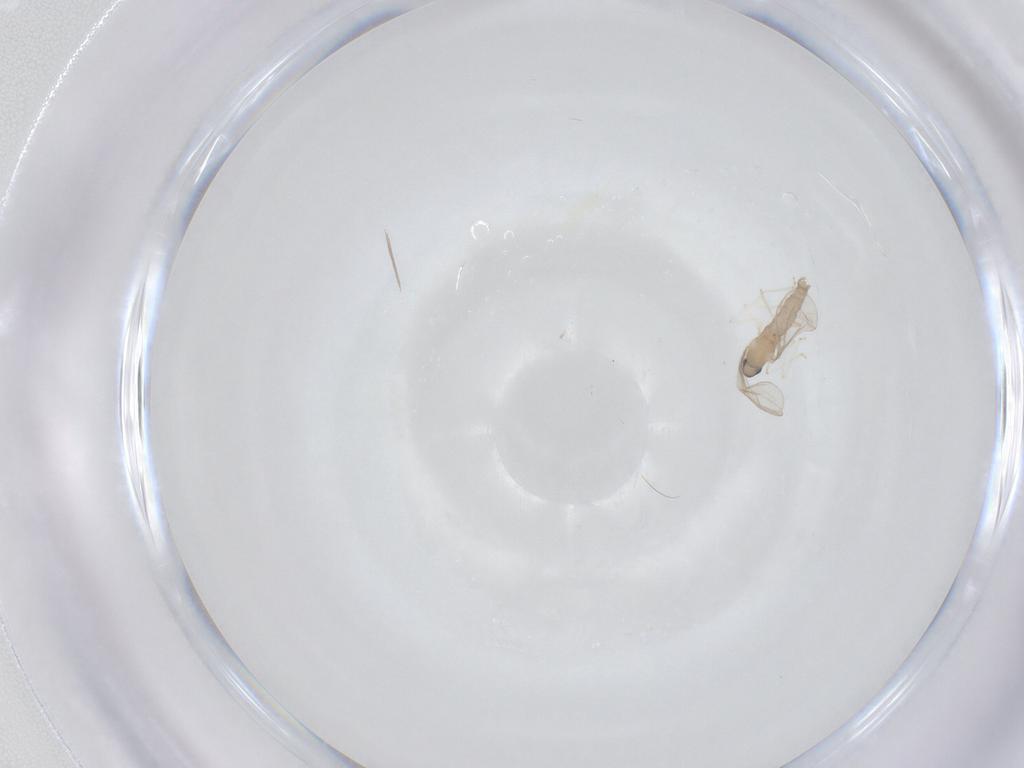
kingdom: Animalia
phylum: Arthropoda
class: Insecta
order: Diptera
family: Cecidomyiidae
